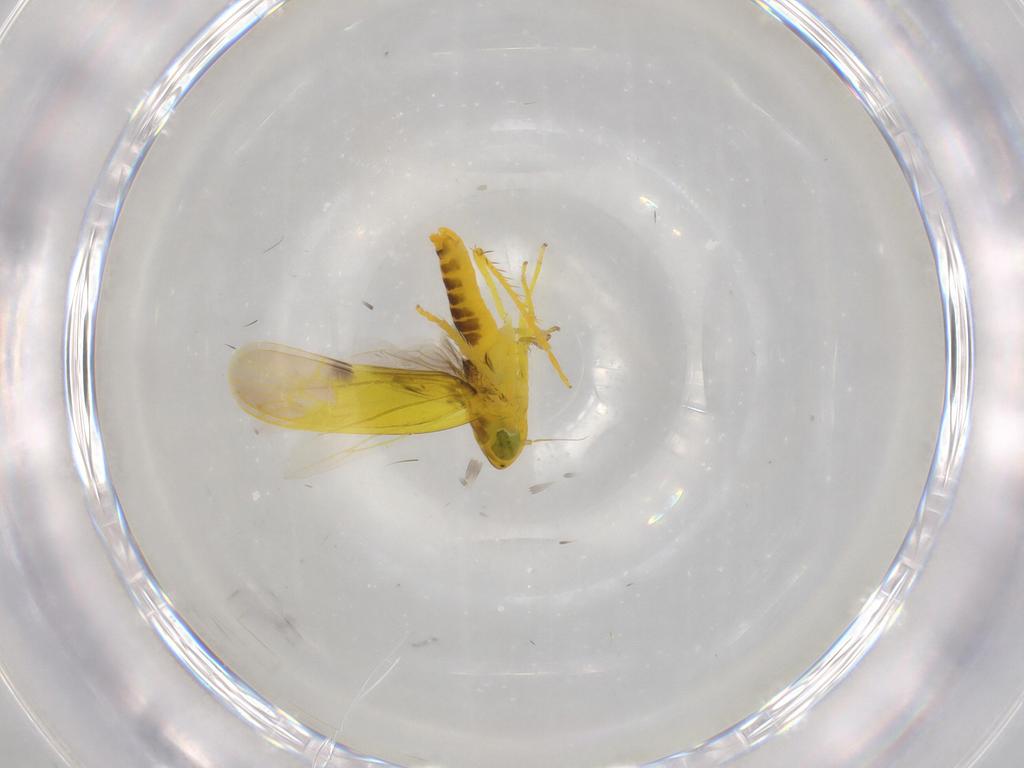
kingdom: Animalia
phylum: Arthropoda
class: Insecta
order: Hemiptera
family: Cicadellidae
